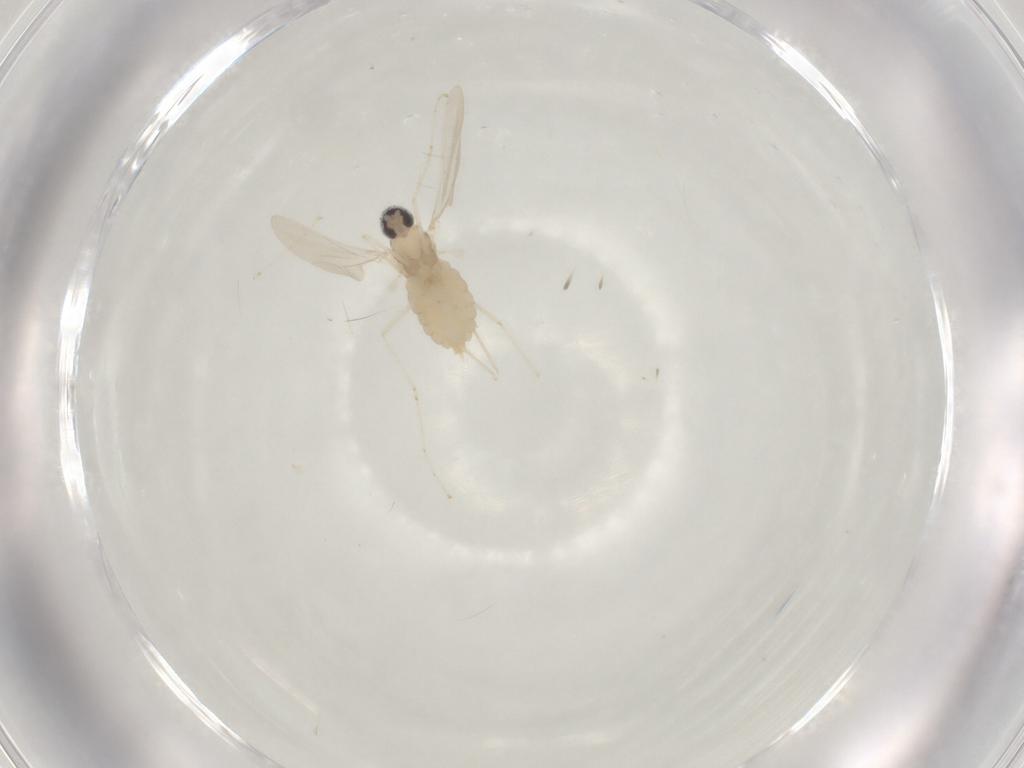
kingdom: Animalia
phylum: Arthropoda
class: Insecta
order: Diptera
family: Cecidomyiidae
